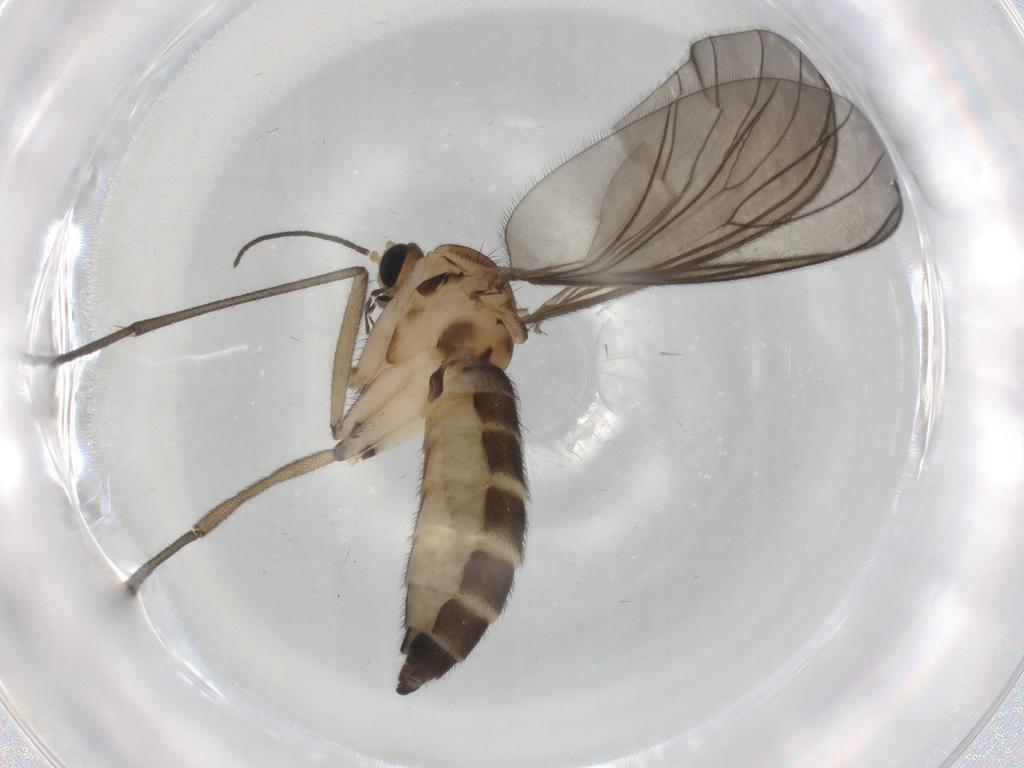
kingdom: Animalia
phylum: Arthropoda
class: Insecta
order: Diptera
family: Sciaridae
